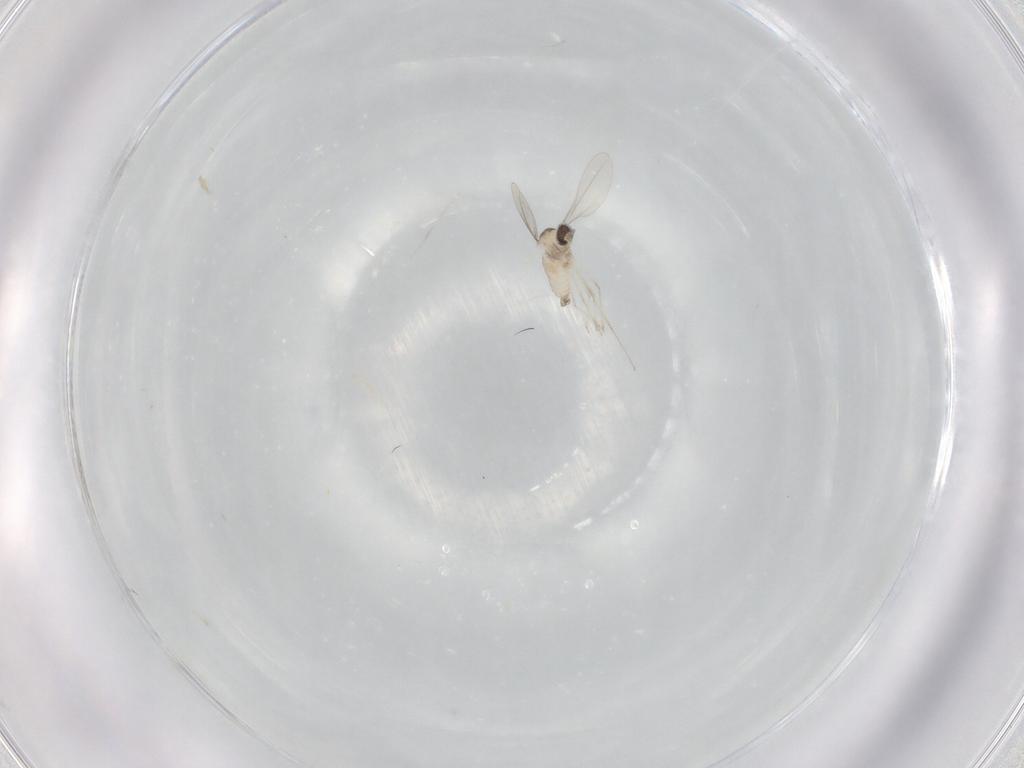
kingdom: Animalia
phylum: Arthropoda
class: Insecta
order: Diptera
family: Cecidomyiidae
